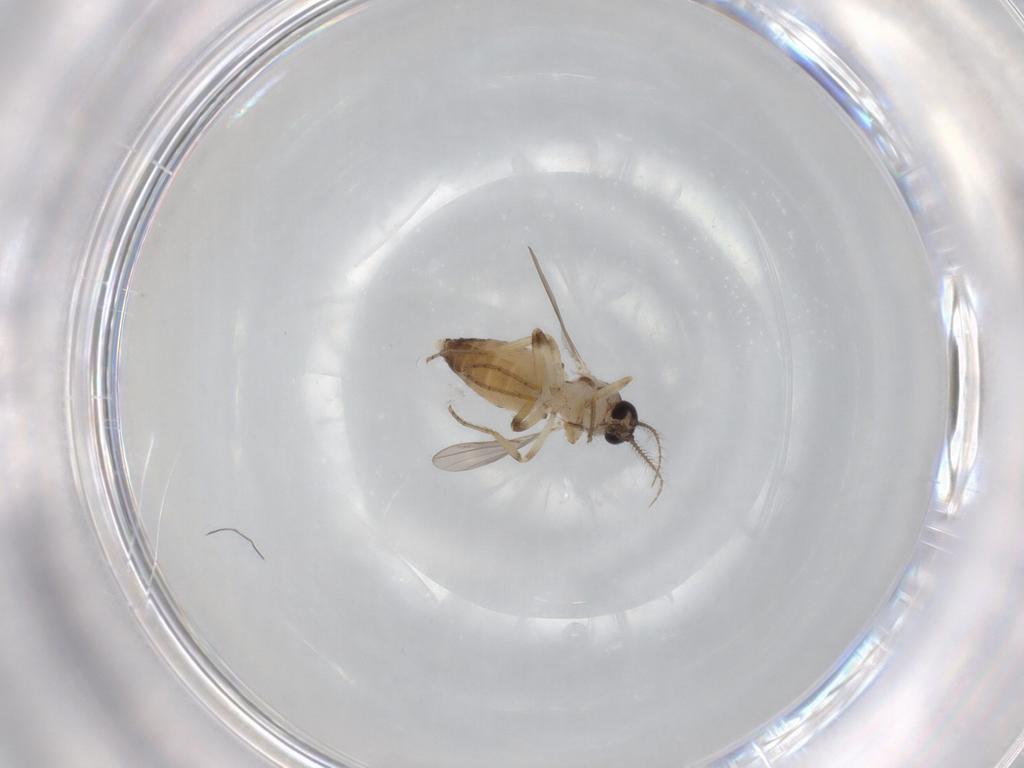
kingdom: Animalia
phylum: Arthropoda
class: Insecta
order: Diptera
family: Ceratopogonidae
